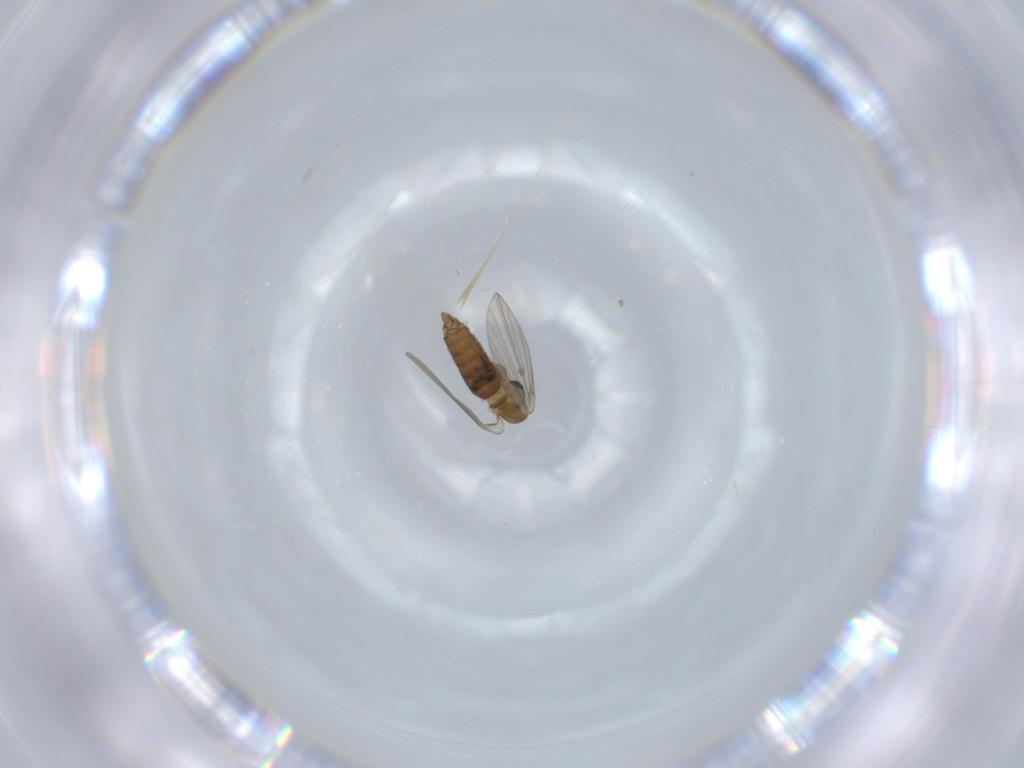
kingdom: Animalia
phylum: Arthropoda
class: Insecta
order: Diptera
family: Psychodidae
